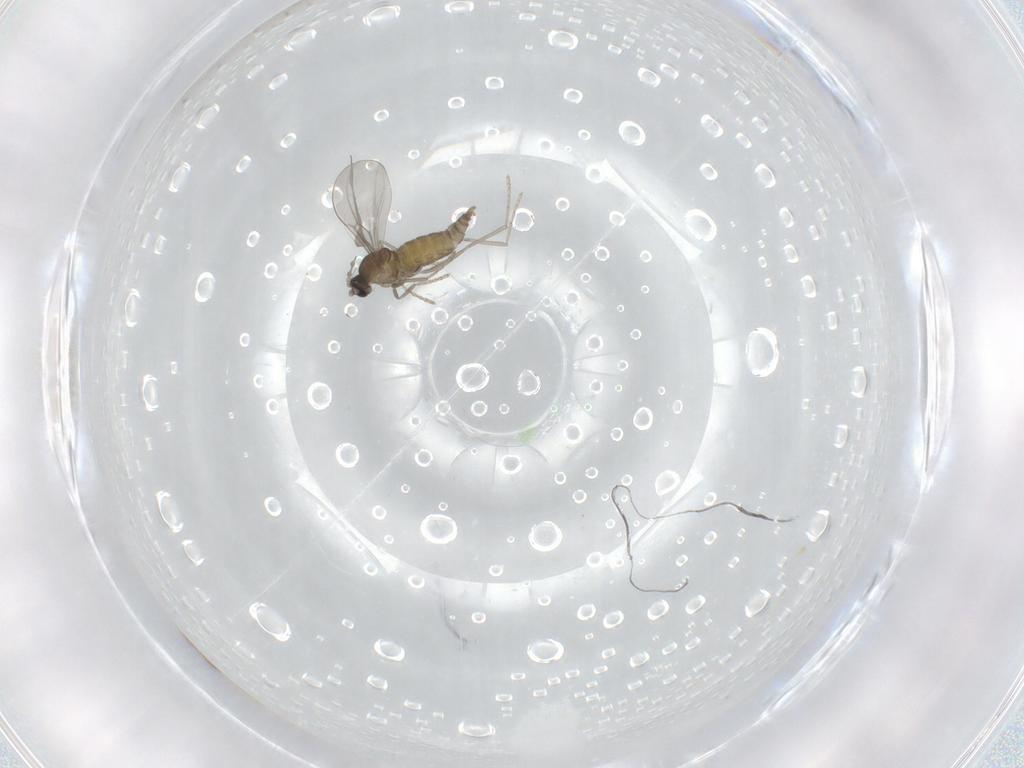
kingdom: Animalia
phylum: Arthropoda
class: Insecta
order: Diptera
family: Cecidomyiidae
